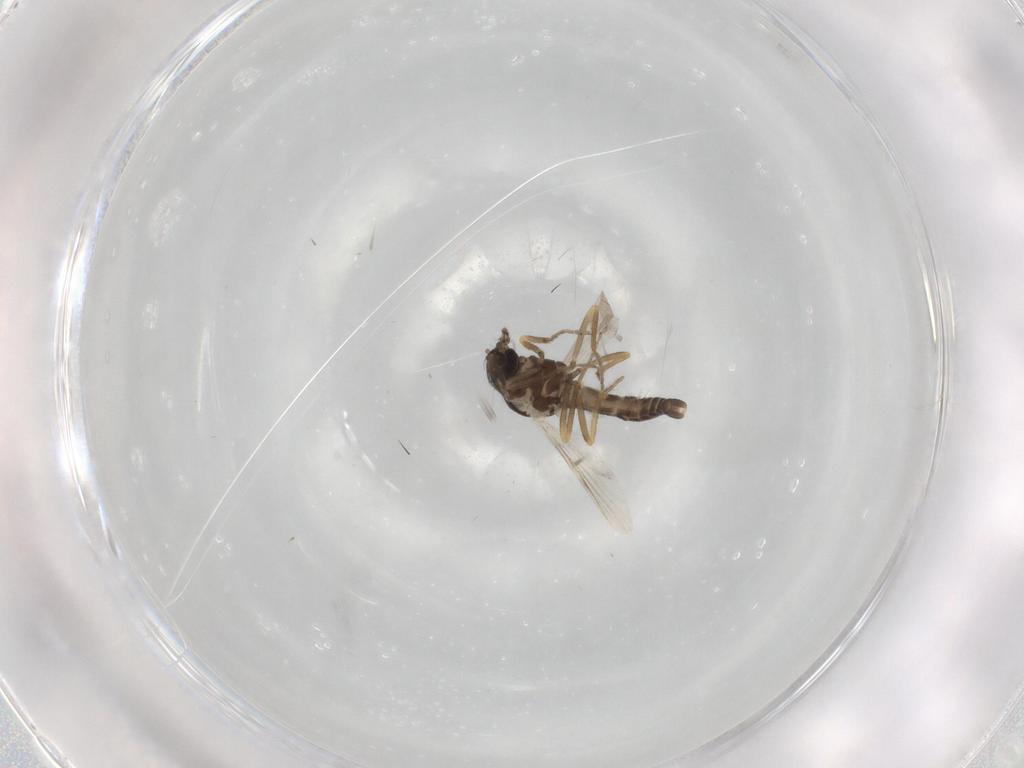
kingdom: Animalia
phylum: Arthropoda
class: Insecta
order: Diptera
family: Ceratopogonidae
